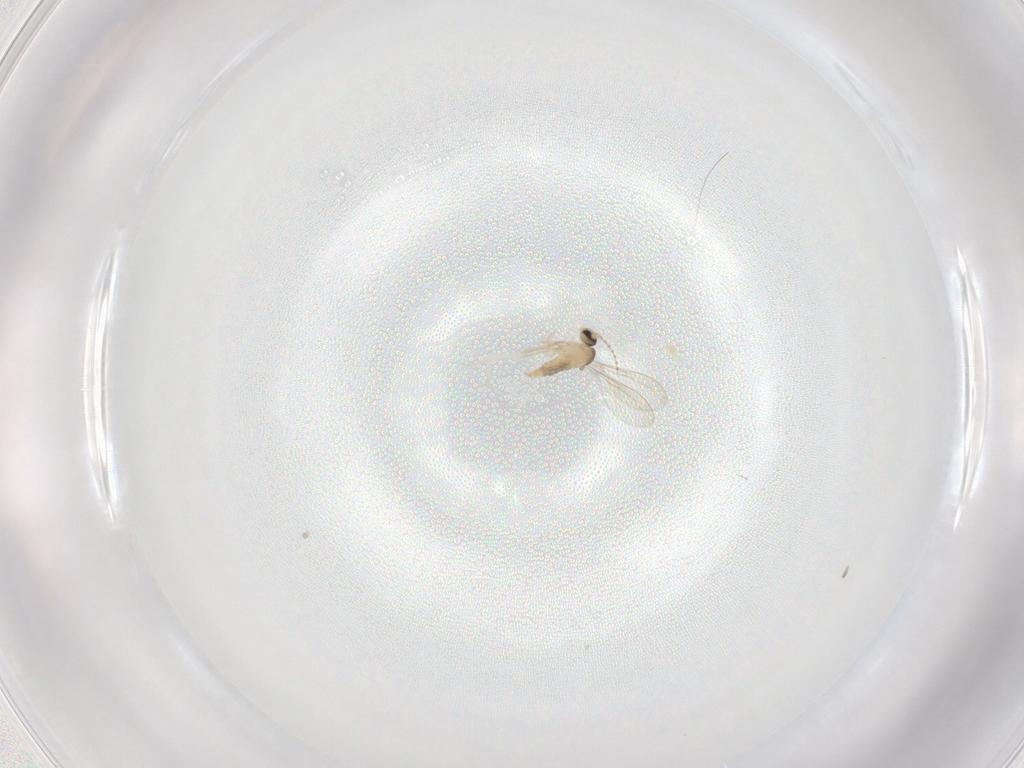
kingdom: Animalia
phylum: Arthropoda
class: Insecta
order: Diptera
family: Cecidomyiidae
